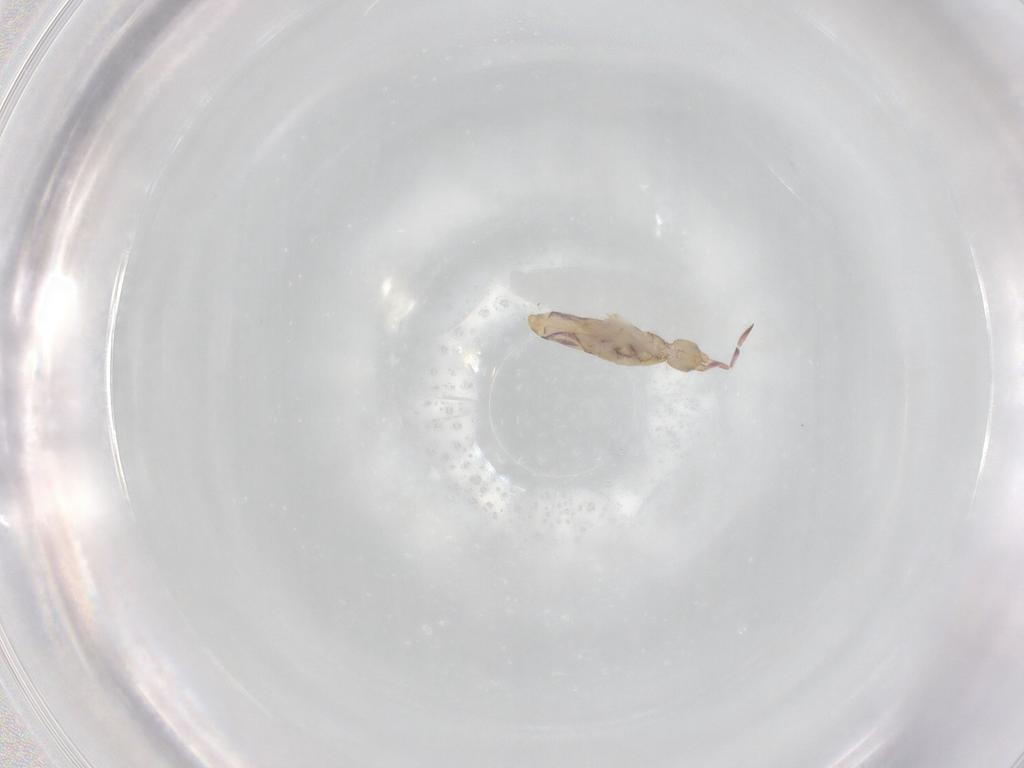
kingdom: Animalia
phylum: Arthropoda
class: Collembola
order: Entomobryomorpha
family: Entomobryidae
